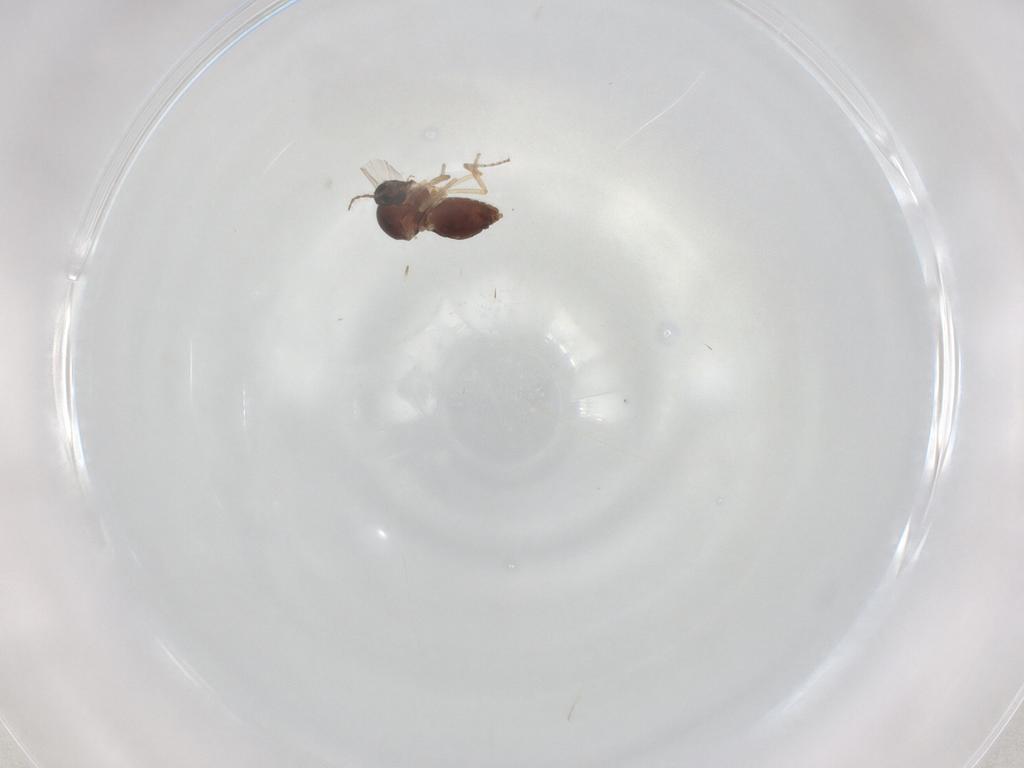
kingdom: Animalia
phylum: Arthropoda
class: Insecta
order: Diptera
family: Ceratopogonidae
